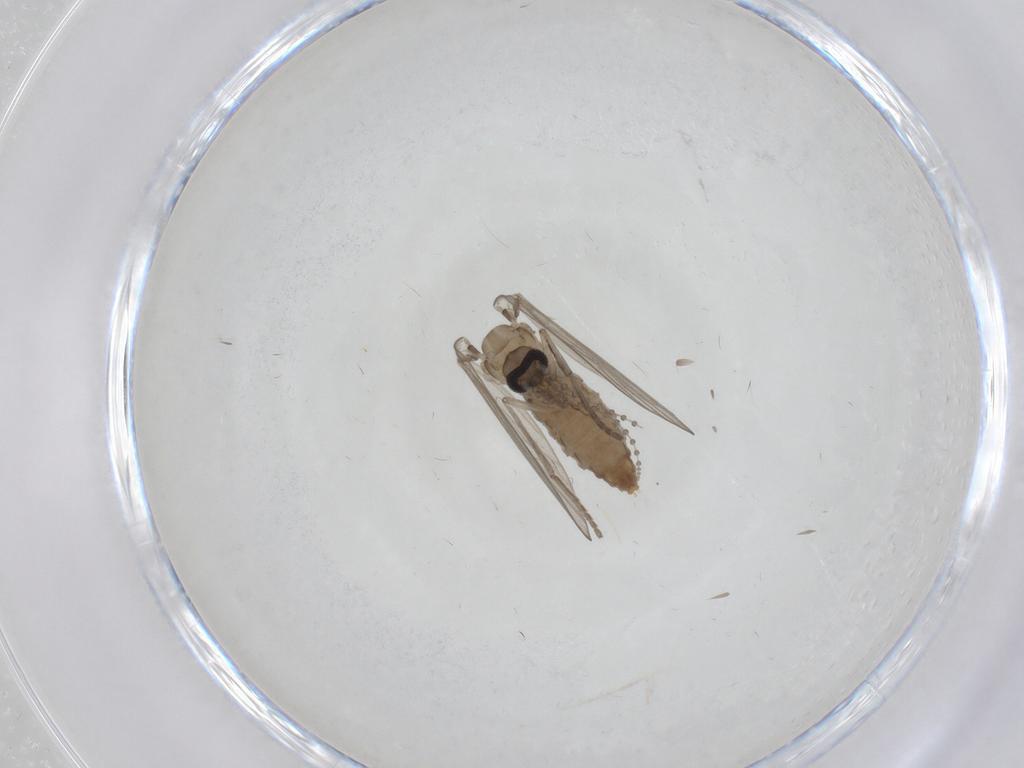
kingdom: Animalia
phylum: Arthropoda
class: Insecta
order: Diptera
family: Psychodidae
